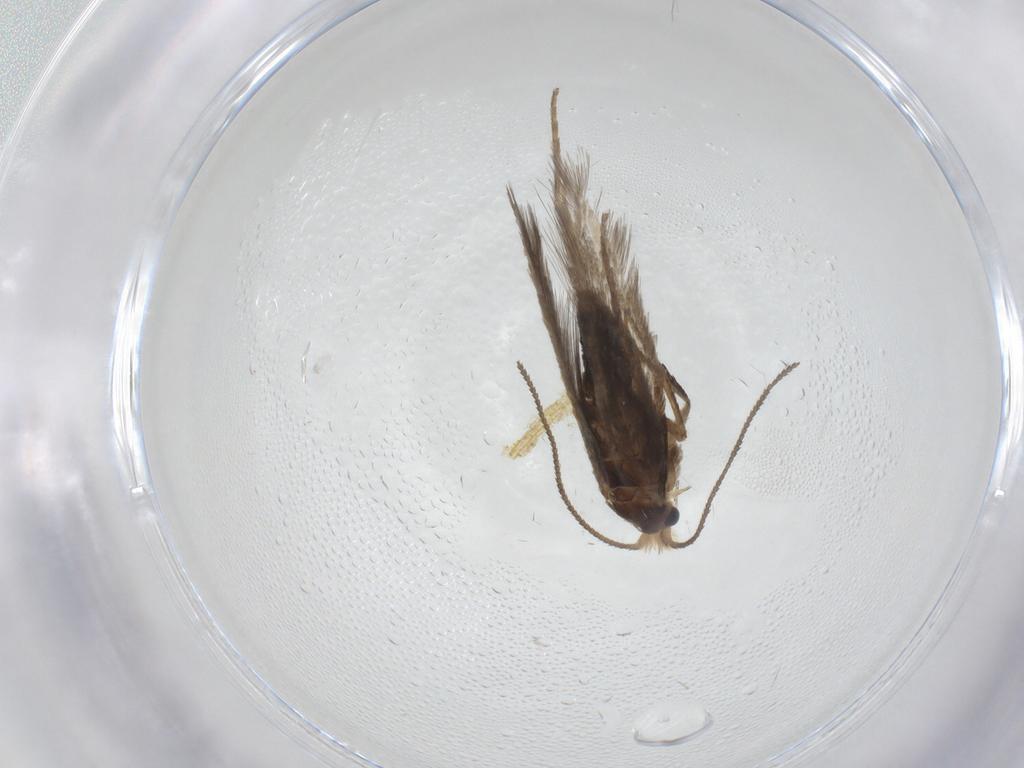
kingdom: Animalia
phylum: Arthropoda
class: Insecta
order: Lepidoptera
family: Nepticulidae
